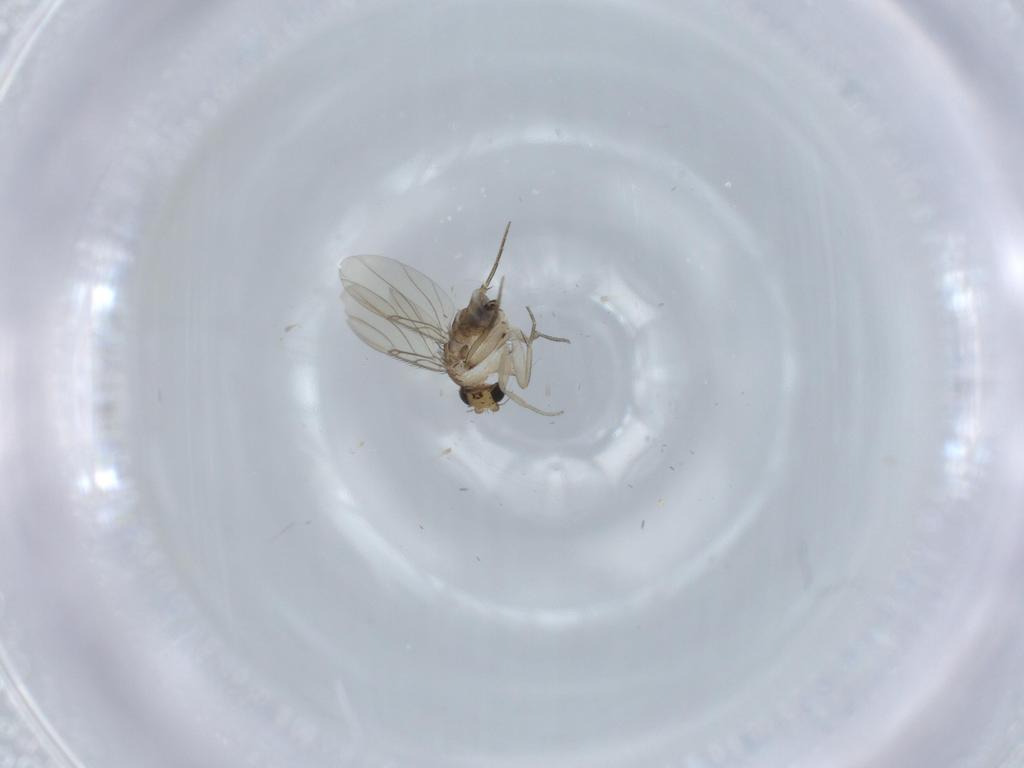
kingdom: Animalia
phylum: Arthropoda
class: Insecta
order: Diptera
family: Phoridae
